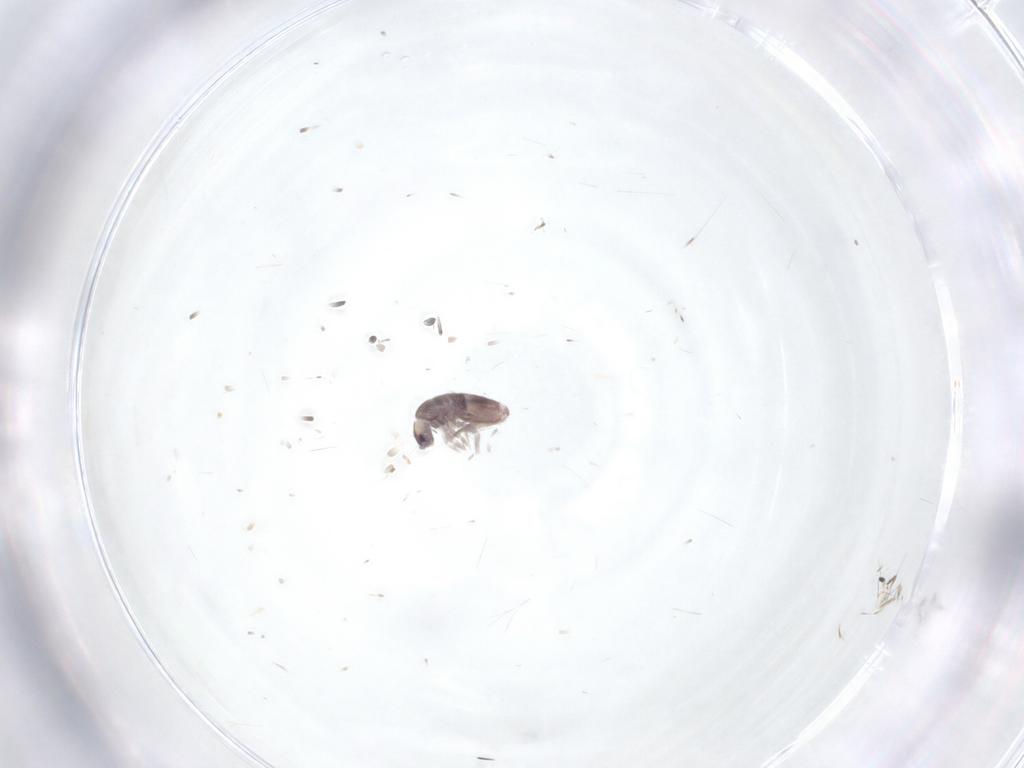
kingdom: Animalia
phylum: Arthropoda
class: Collembola
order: Entomobryomorpha
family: Entomobryidae
